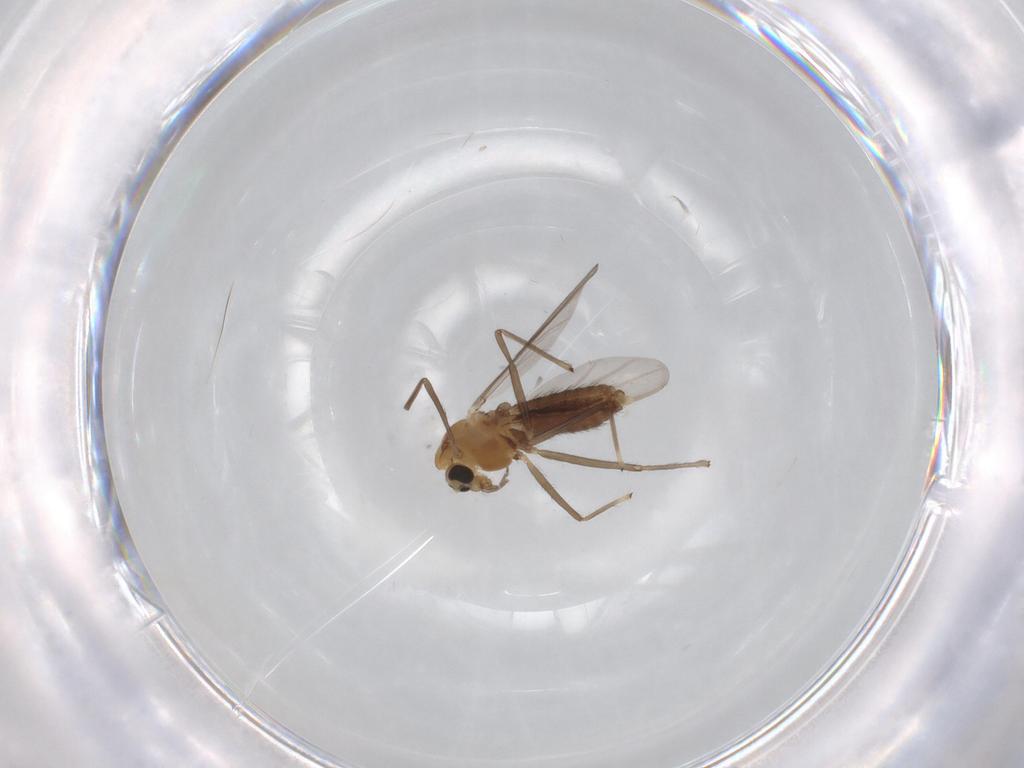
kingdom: Animalia
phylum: Arthropoda
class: Insecta
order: Diptera
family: Chironomidae
